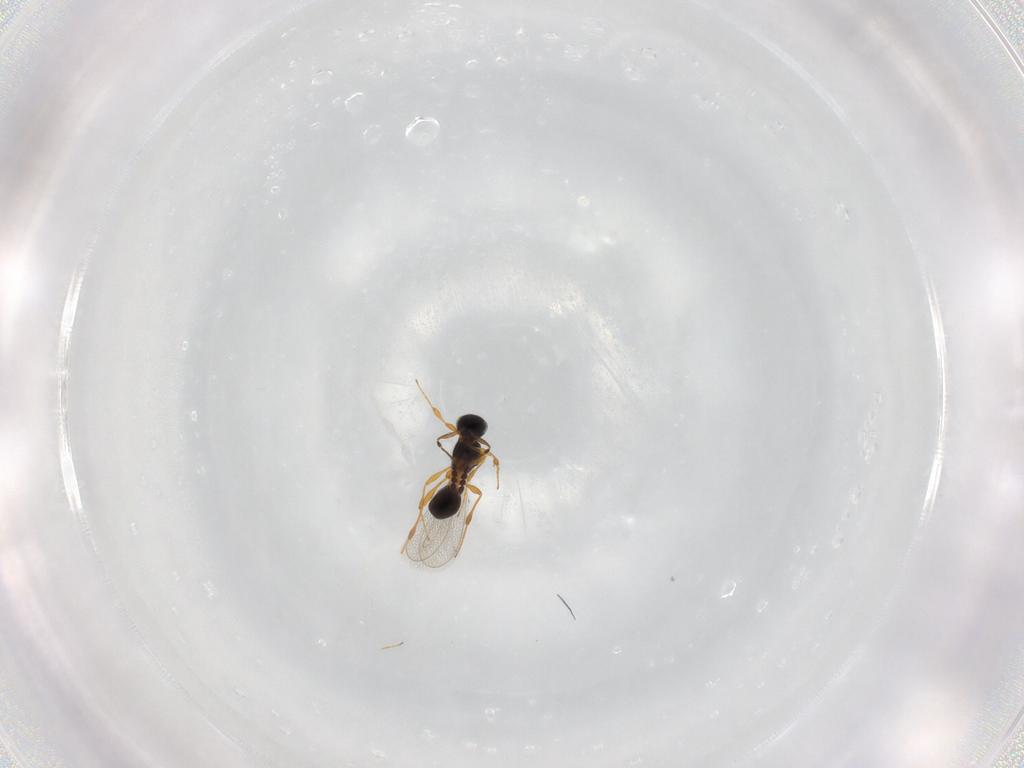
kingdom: Animalia
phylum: Arthropoda
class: Insecta
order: Hymenoptera
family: Platygastridae
